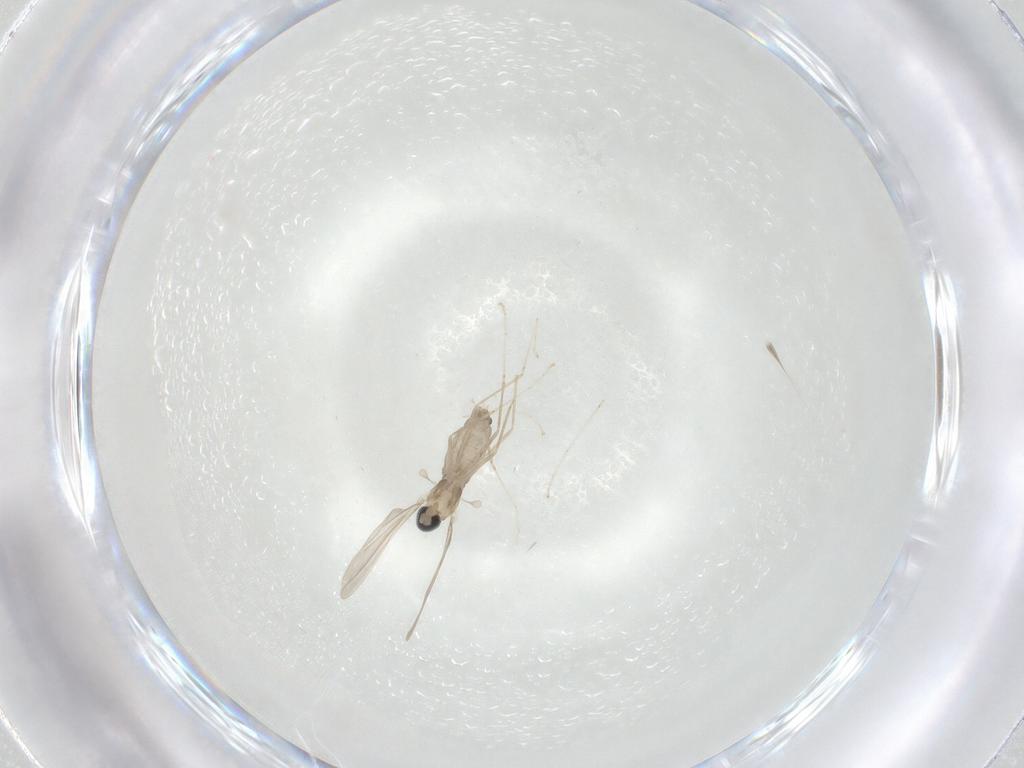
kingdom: Animalia
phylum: Arthropoda
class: Insecta
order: Diptera
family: Cecidomyiidae
